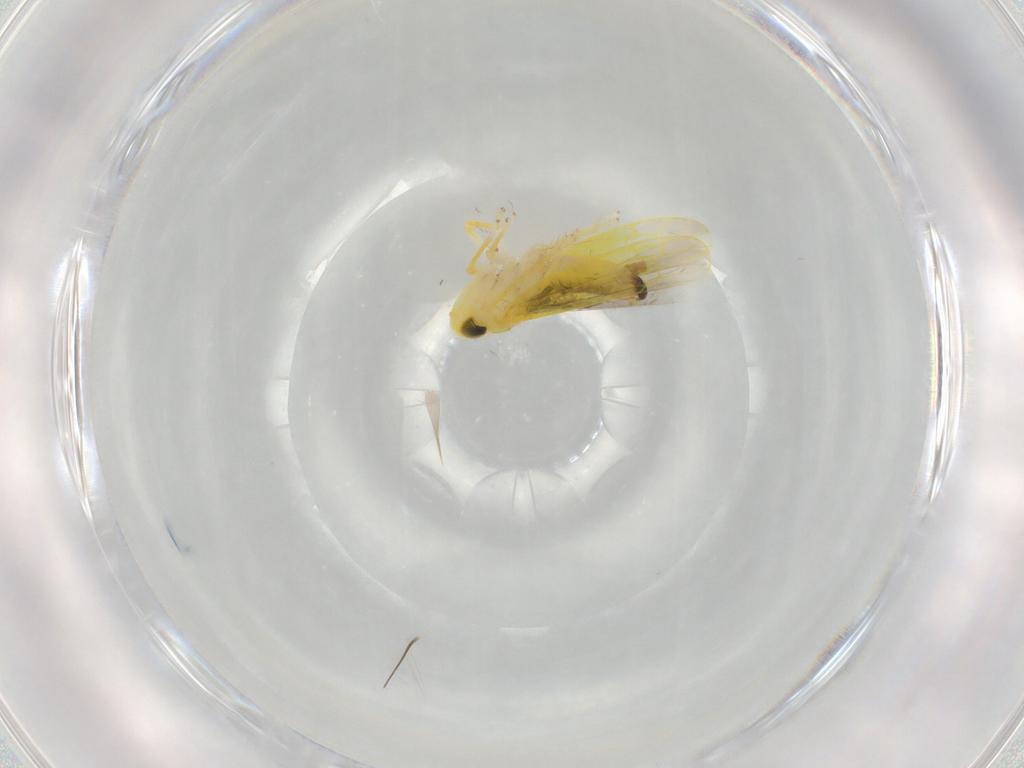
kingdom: Animalia
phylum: Arthropoda
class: Insecta
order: Hemiptera
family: Cicadellidae
